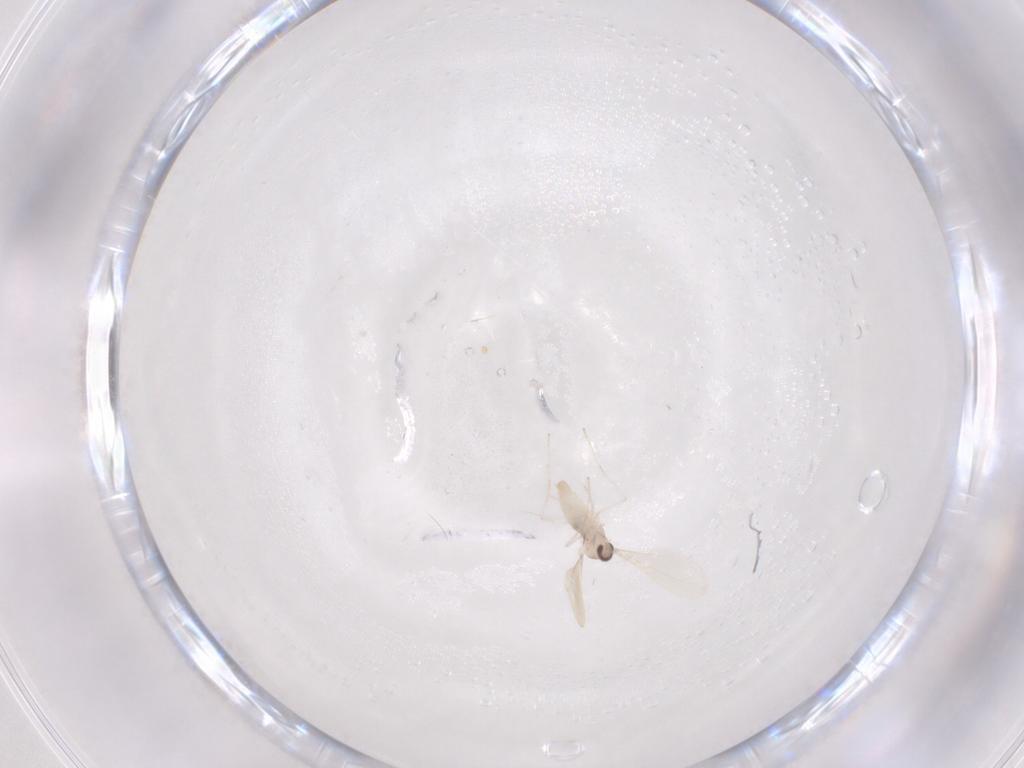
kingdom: Animalia
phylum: Arthropoda
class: Insecta
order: Diptera
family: Cecidomyiidae
